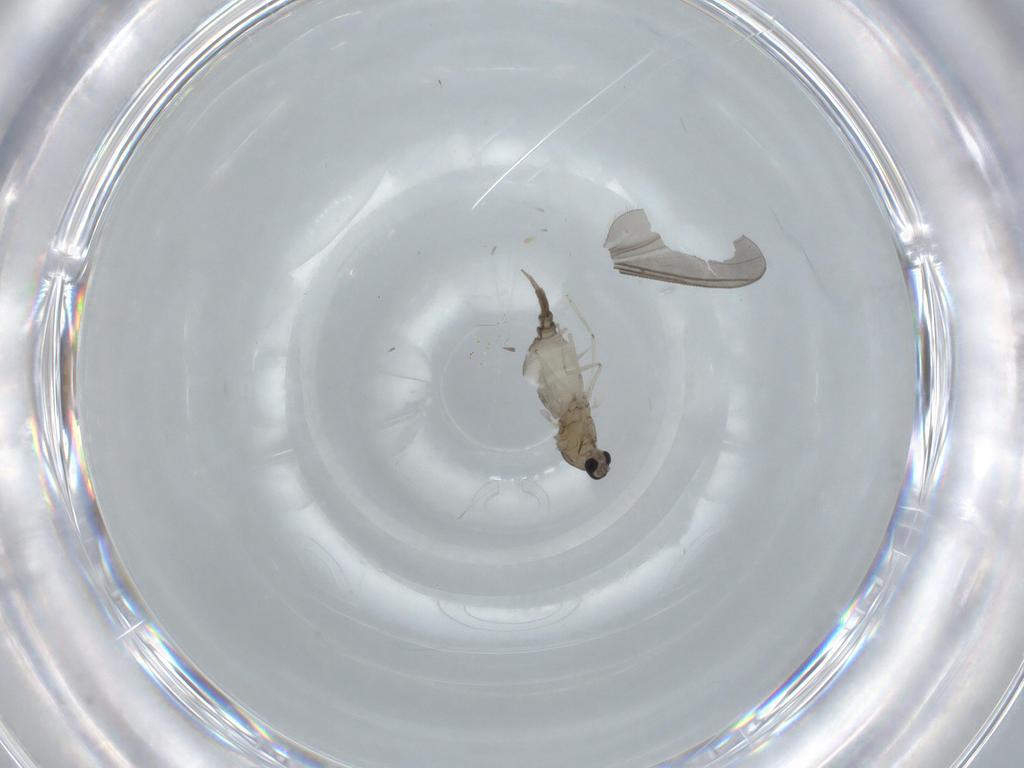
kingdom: Animalia
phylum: Arthropoda
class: Insecta
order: Diptera
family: Cecidomyiidae
